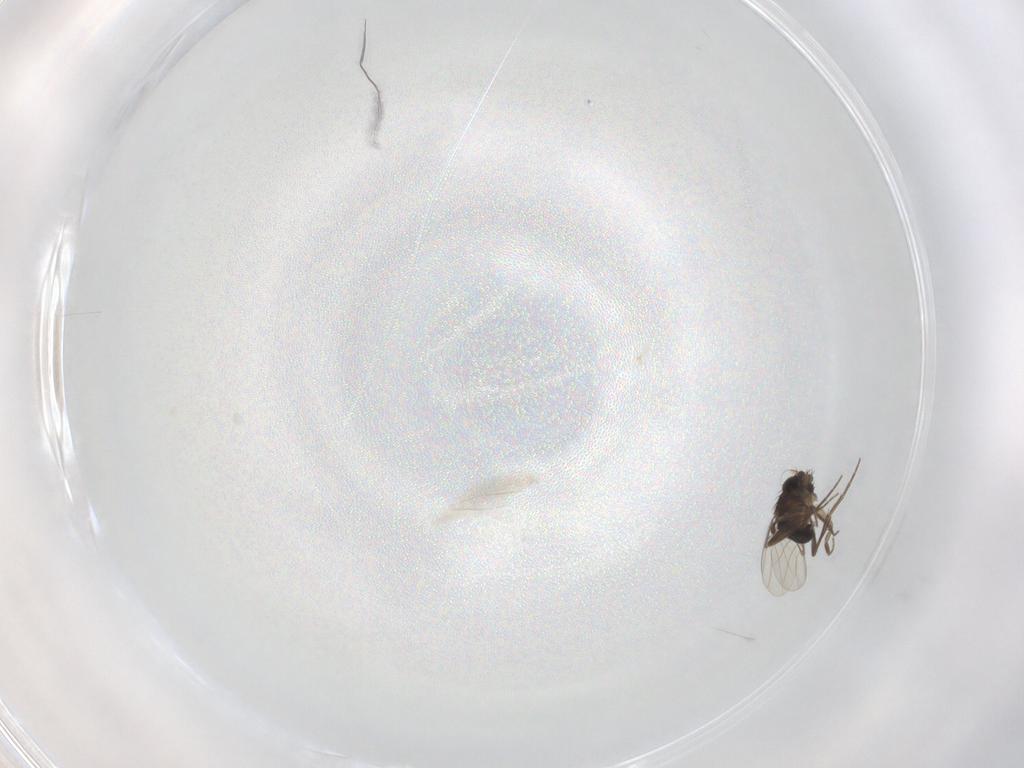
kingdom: Animalia
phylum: Arthropoda
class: Insecta
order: Diptera
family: Phoridae
